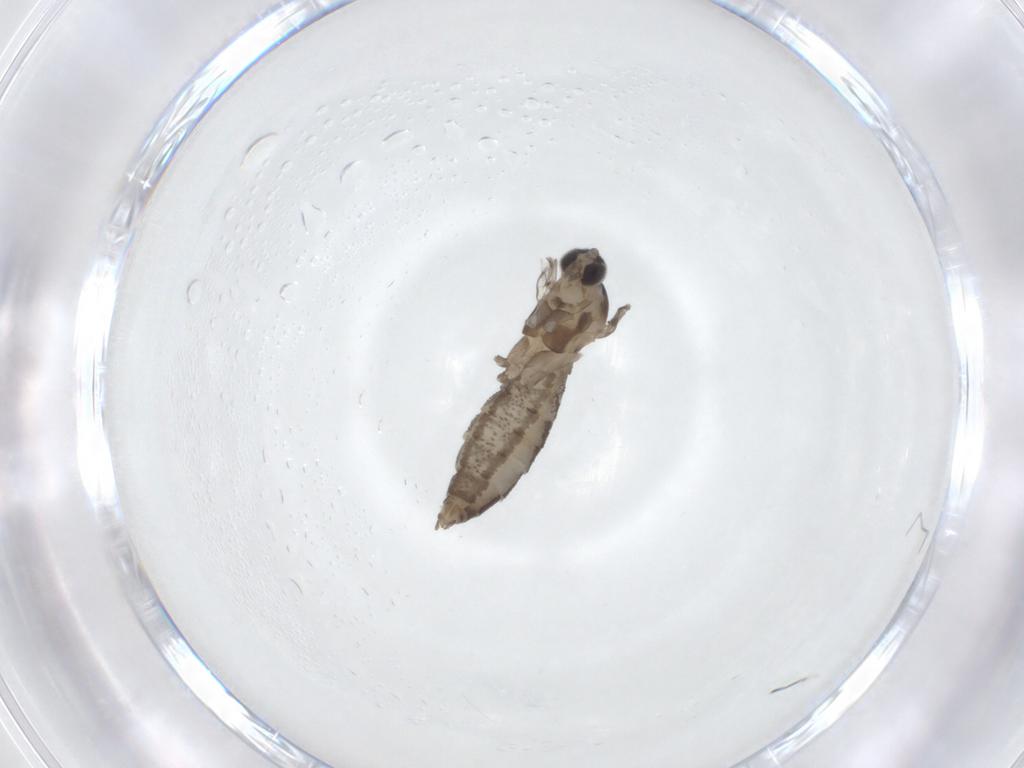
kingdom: Animalia
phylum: Arthropoda
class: Insecta
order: Diptera
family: Cecidomyiidae
